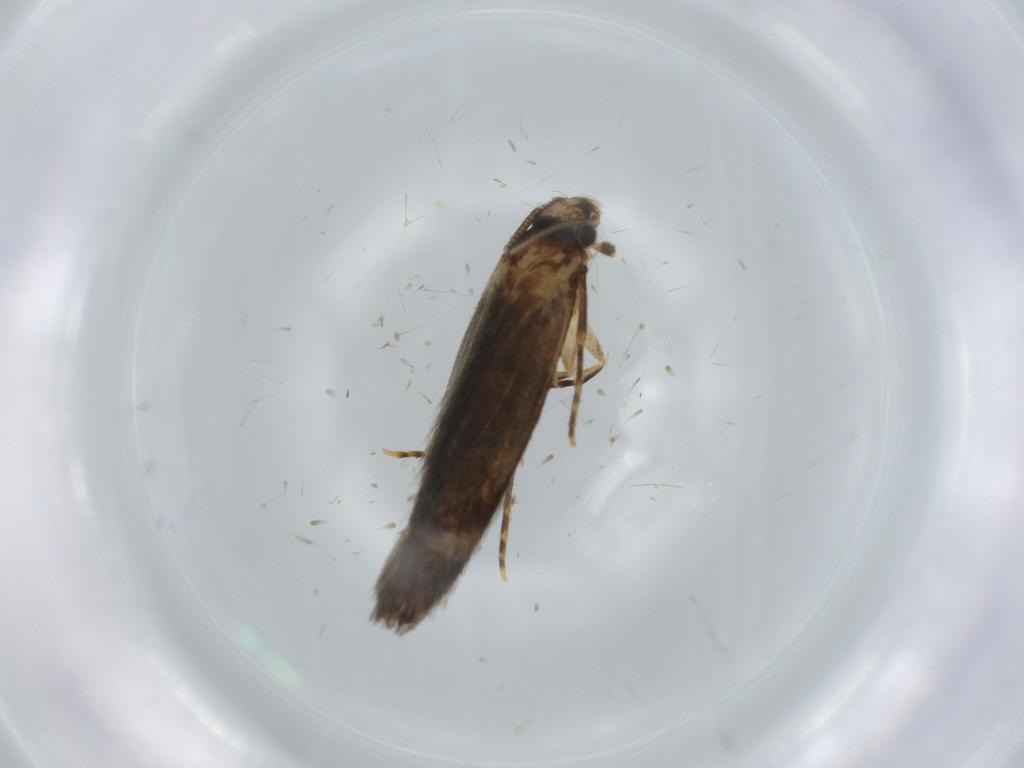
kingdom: Animalia
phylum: Arthropoda
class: Insecta
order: Lepidoptera
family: Tineidae
